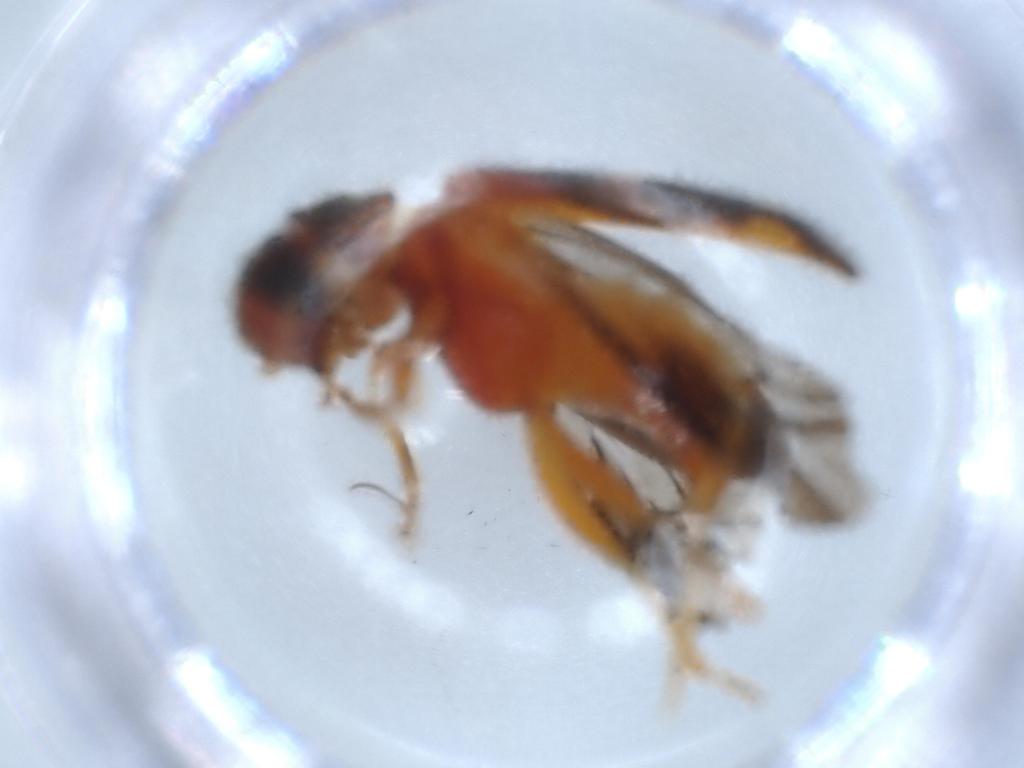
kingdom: Animalia
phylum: Arthropoda
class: Insecta
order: Coleoptera
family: Cleridae
